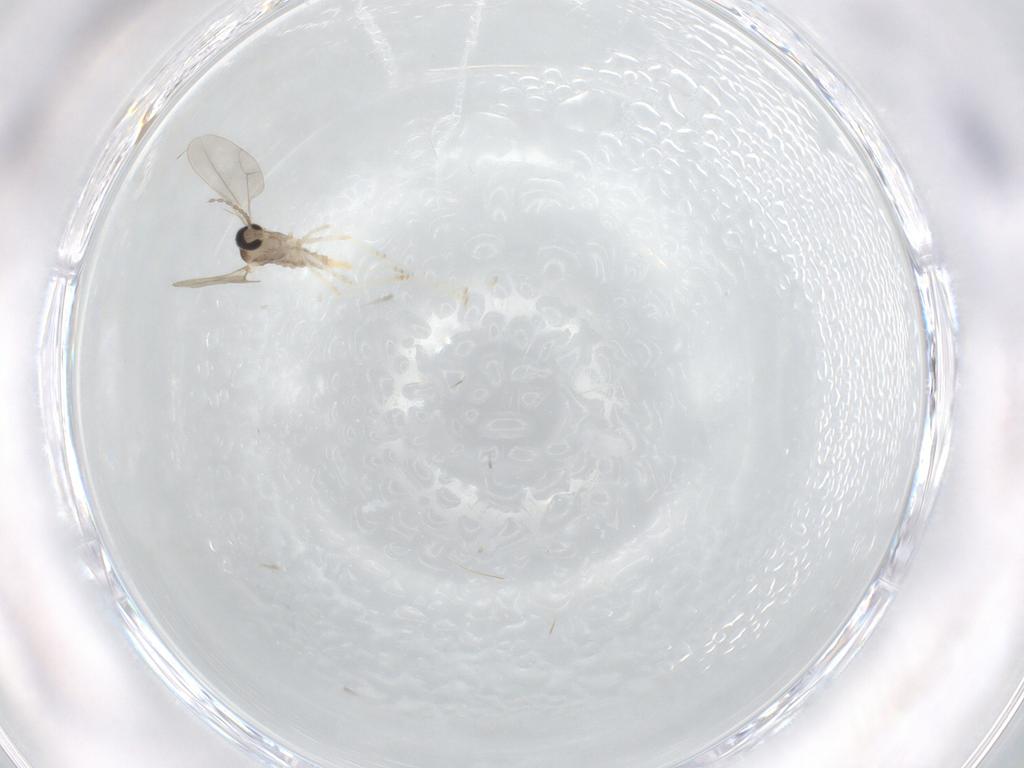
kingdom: Animalia
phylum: Arthropoda
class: Insecta
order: Diptera
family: Cecidomyiidae
